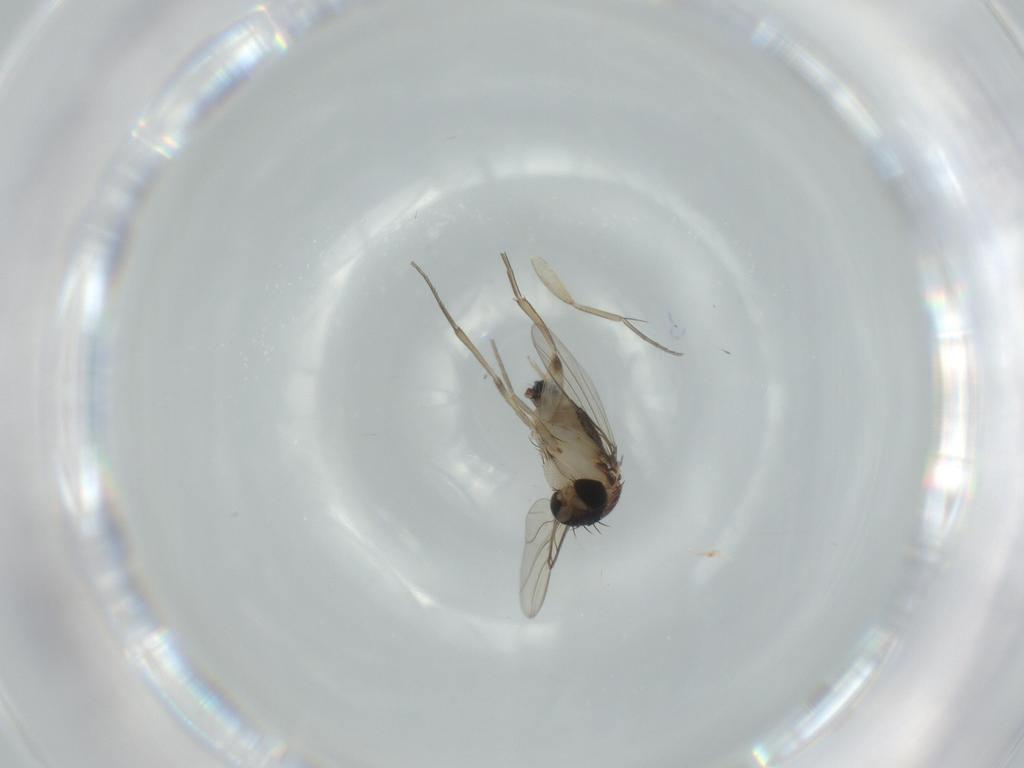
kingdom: Animalia
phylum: Arthropoda
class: Insecta
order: Diptera
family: Phoridae
